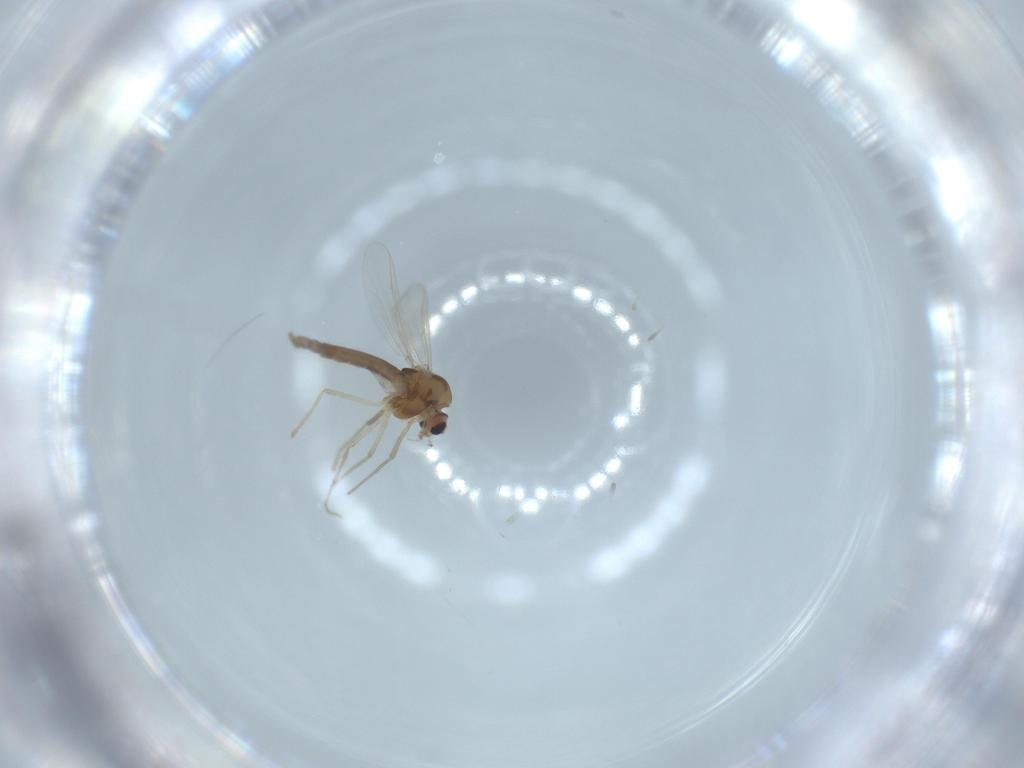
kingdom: Animalia
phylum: Arthropoda
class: Insecta
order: Diptera
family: Chironomidae
